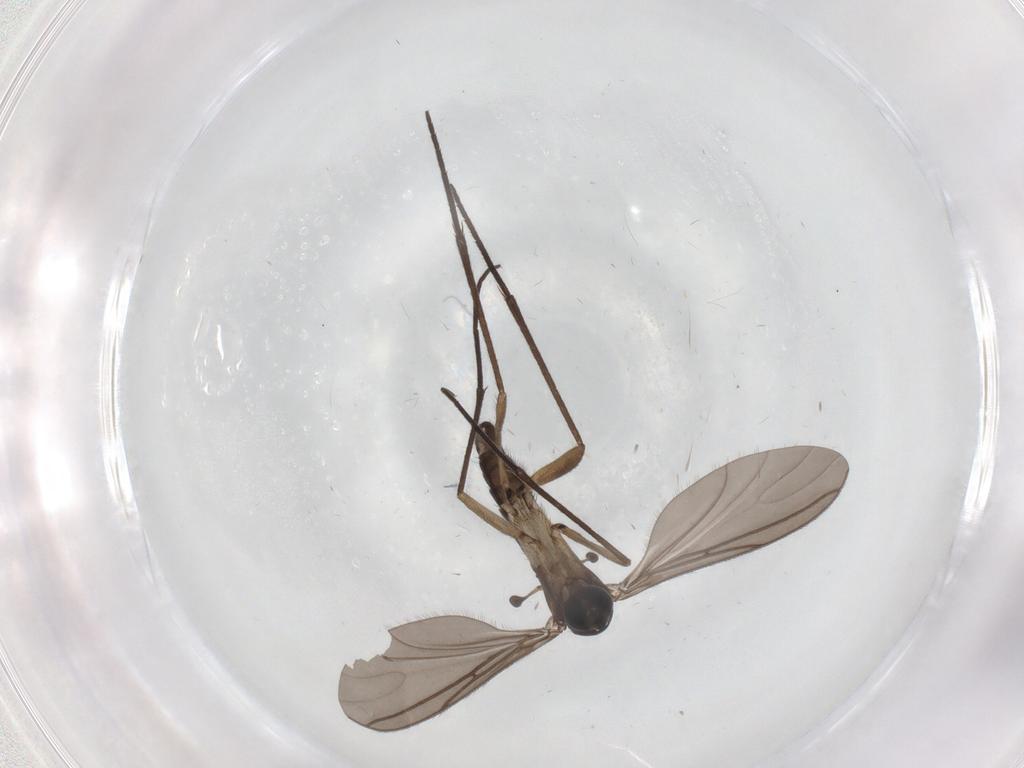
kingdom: Animalia
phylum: Arthropoda
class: Insecta
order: Diptera
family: Sciaridae
